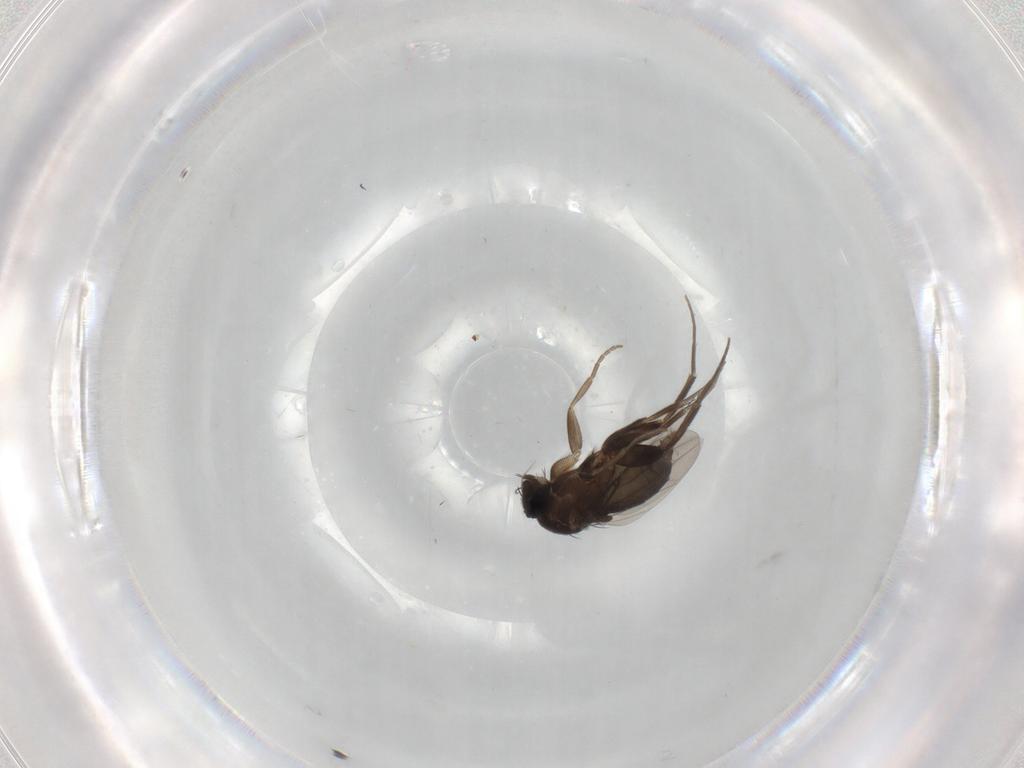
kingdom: Animalia
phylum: Arthropoda
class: Insecta
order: Diptera
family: Phoridae
